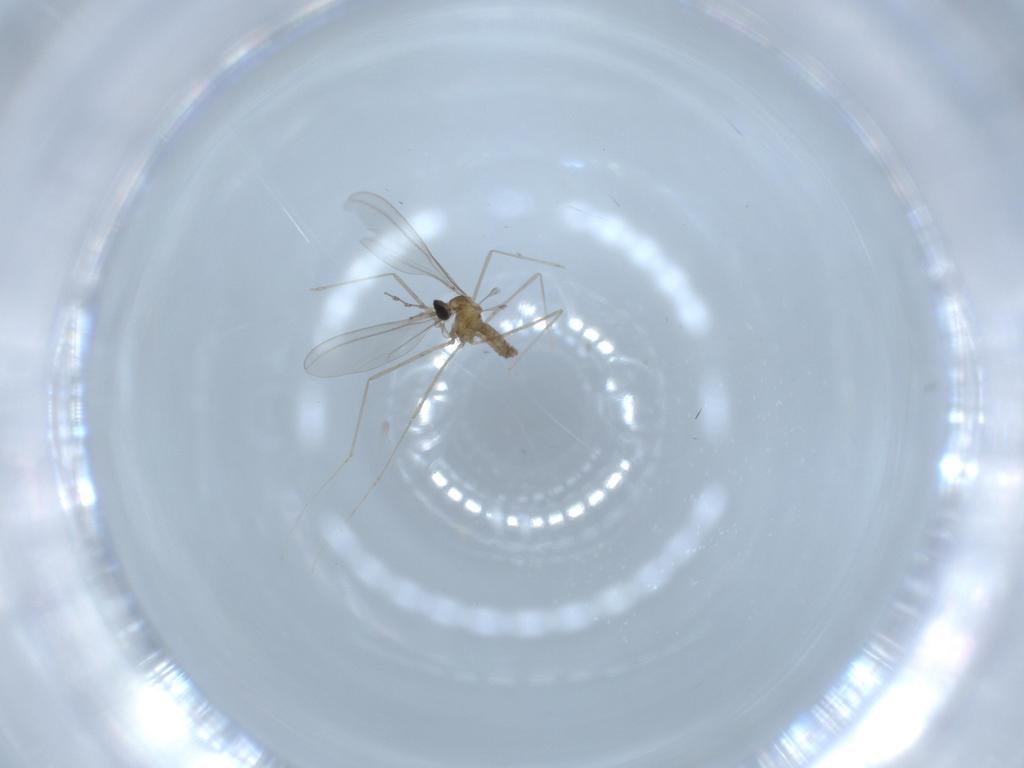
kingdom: Animalia
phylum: Arthropoda
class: Insecta
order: Diptera
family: Cecidomyiidae
